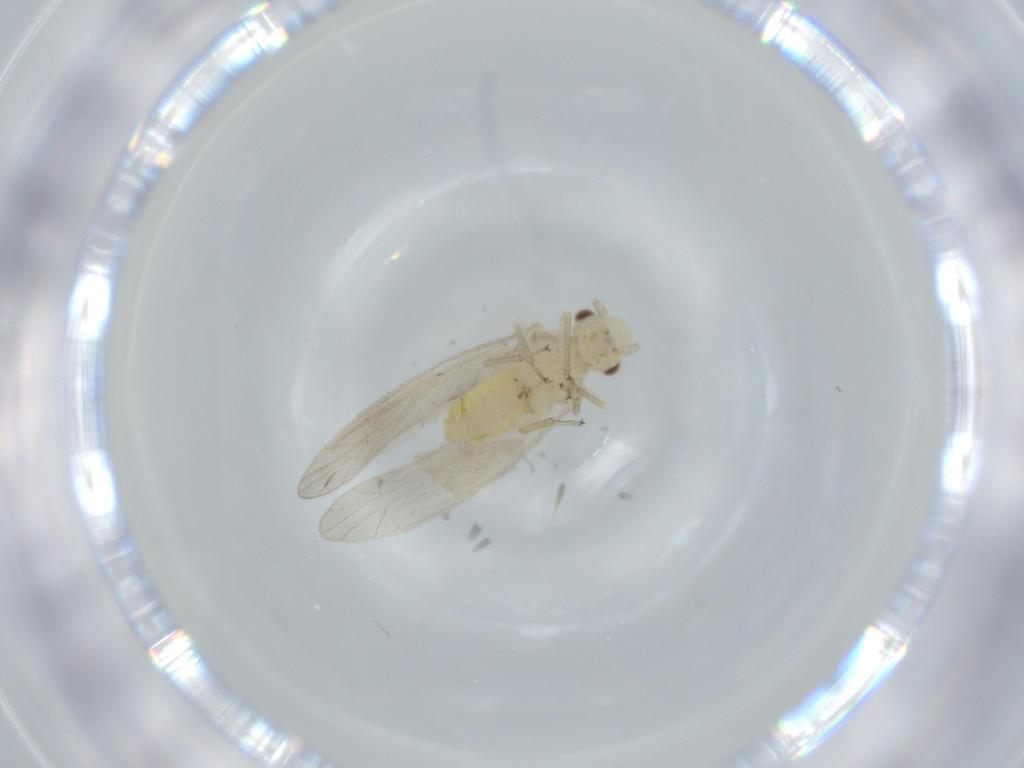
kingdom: Animalia
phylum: Arthropoda
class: Insecta
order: Psocodea
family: Caeciliusidae
